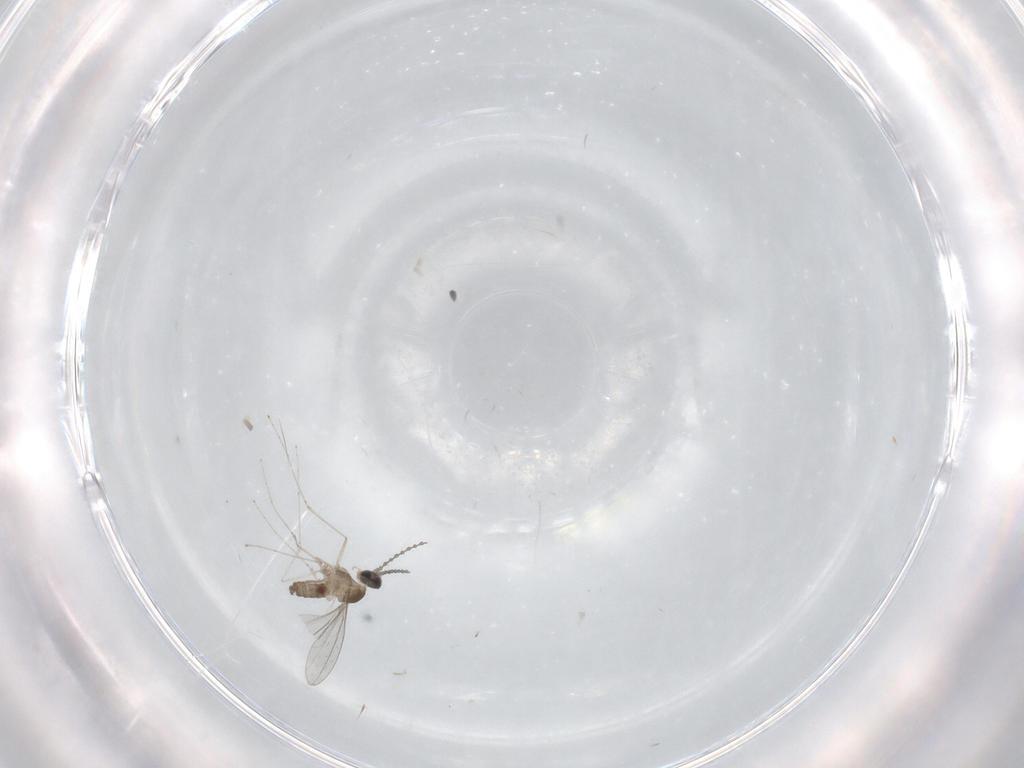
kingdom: Animalia
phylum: Arthropoda
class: Insecta
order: Diptera
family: Cecidomyiidae
